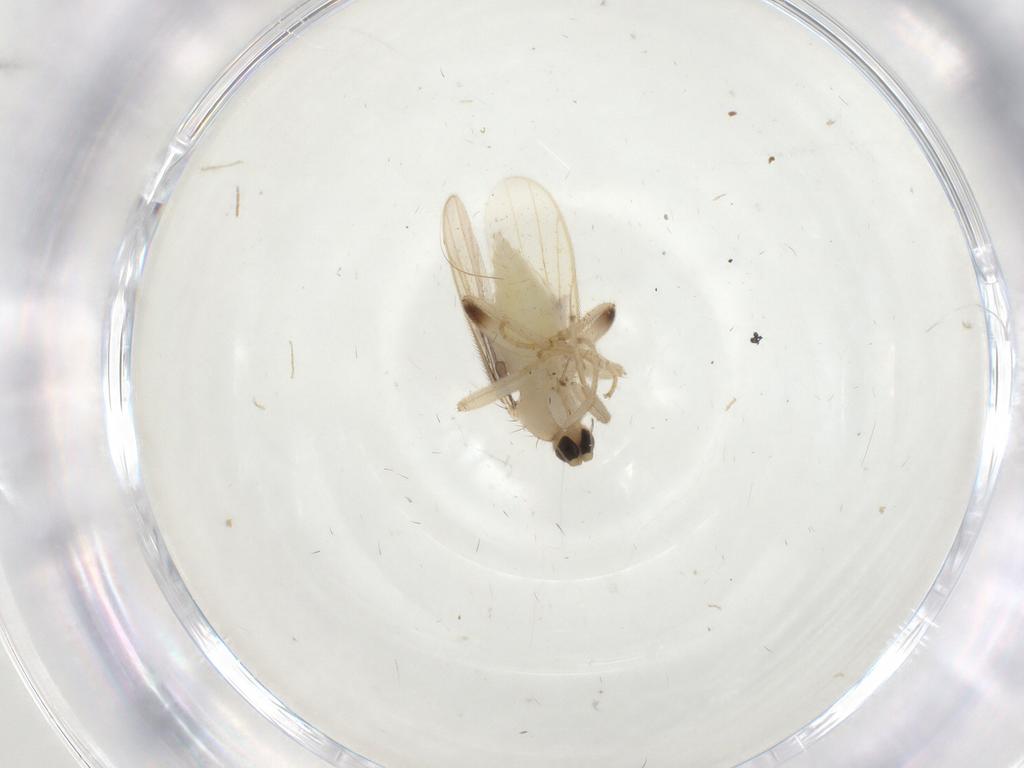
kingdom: Animalia
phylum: Arthropoda
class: Insecta
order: Diptera
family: Hybotidae
